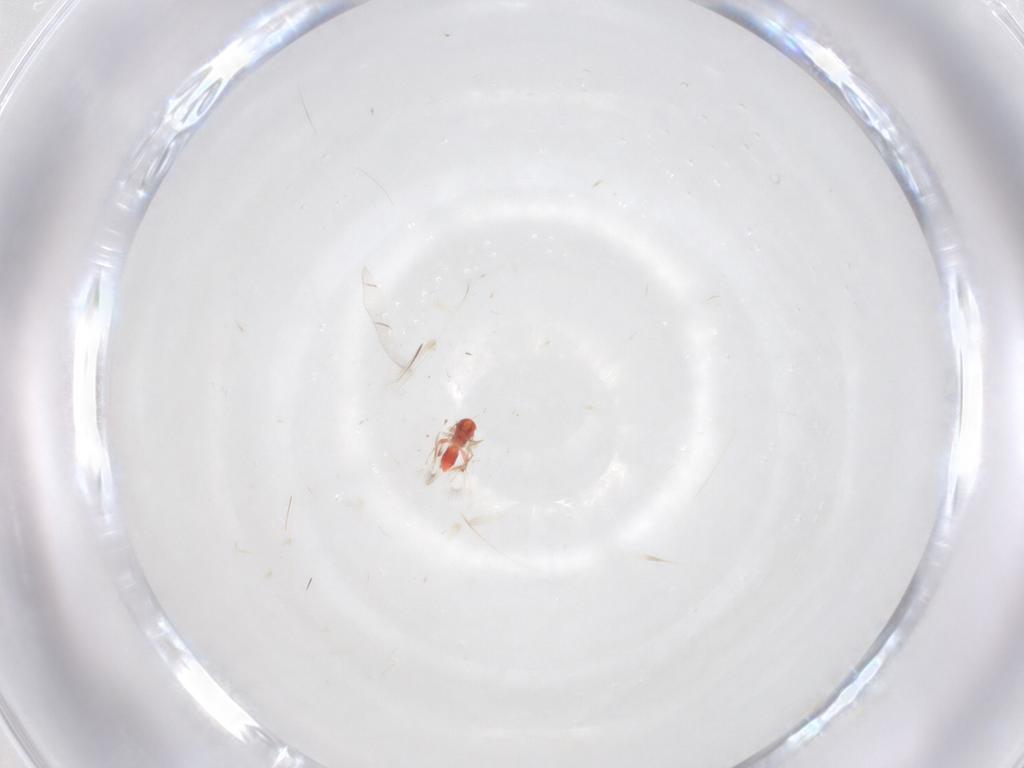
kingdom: Animalia
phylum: Arthropoda
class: Insecta
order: Hymenoptera
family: Trichogrammatidae
